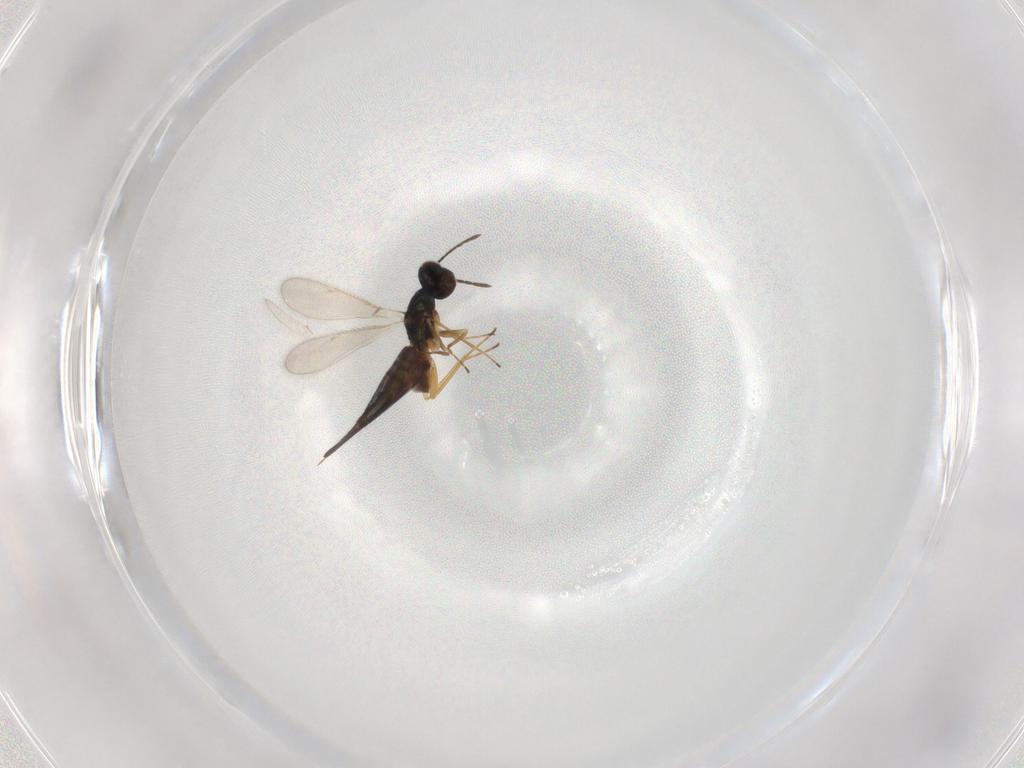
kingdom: Animalia
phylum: Arthropoda
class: Insecta
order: Hymenoptera
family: Eulophidae
